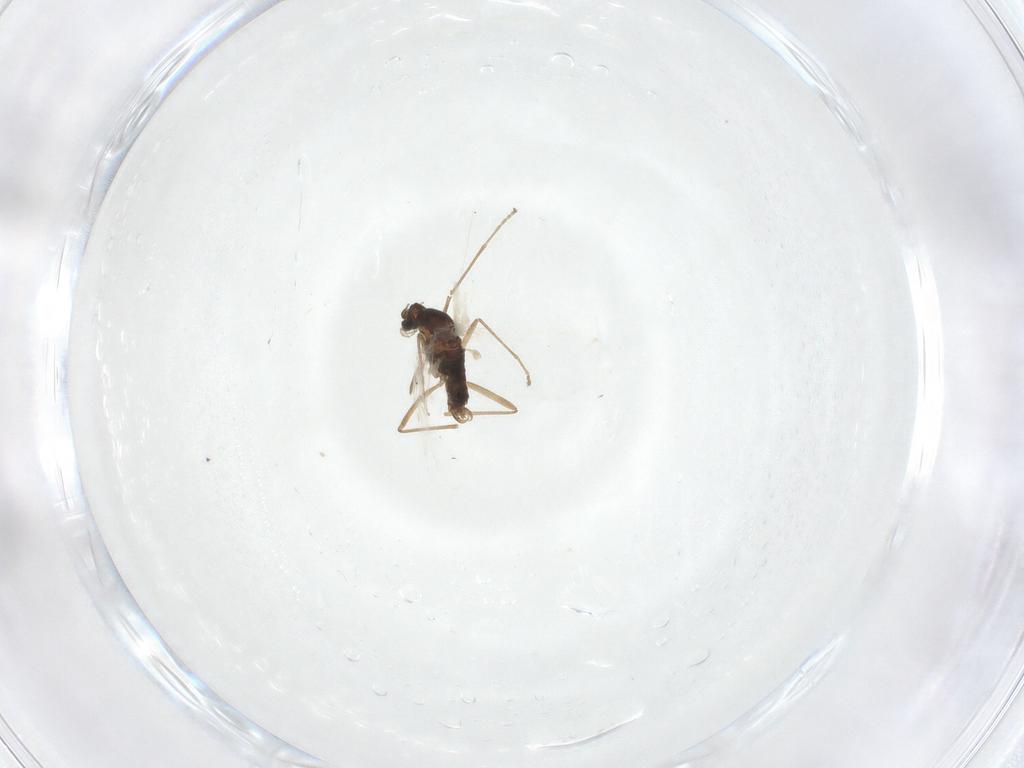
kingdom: Animalia
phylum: Arthropoda
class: Insecta
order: Diptera
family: Cecidomyiidae
